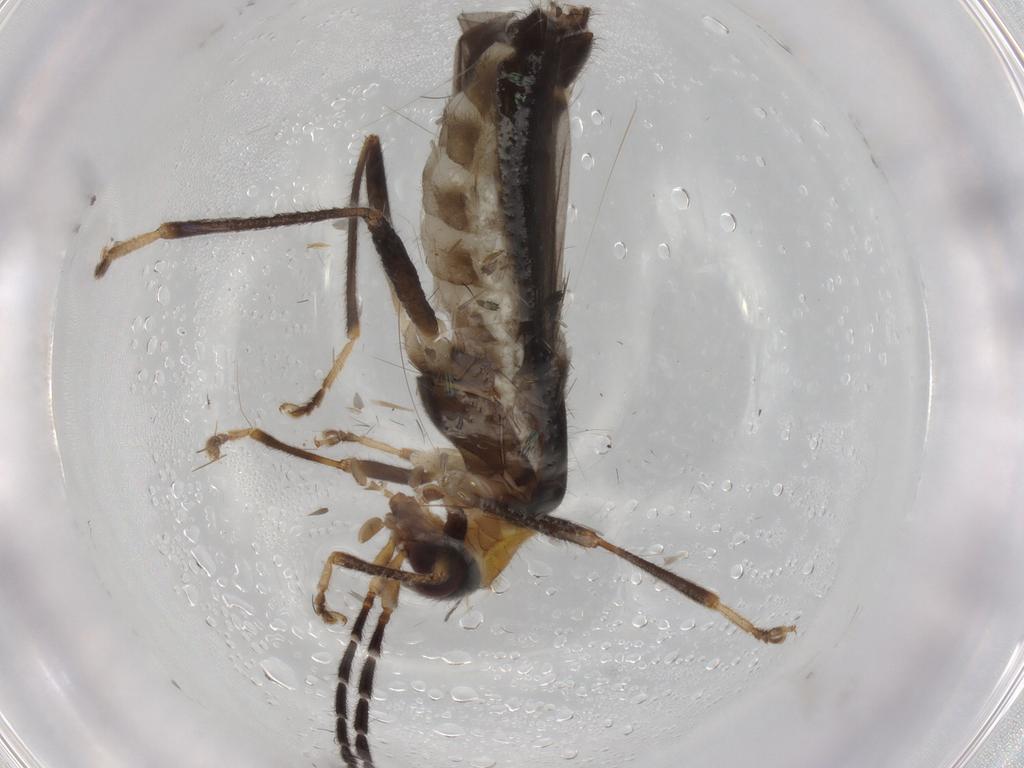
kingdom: Animalia
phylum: Arthropoda
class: Insecta
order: Coleoptera
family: Cantharidae
